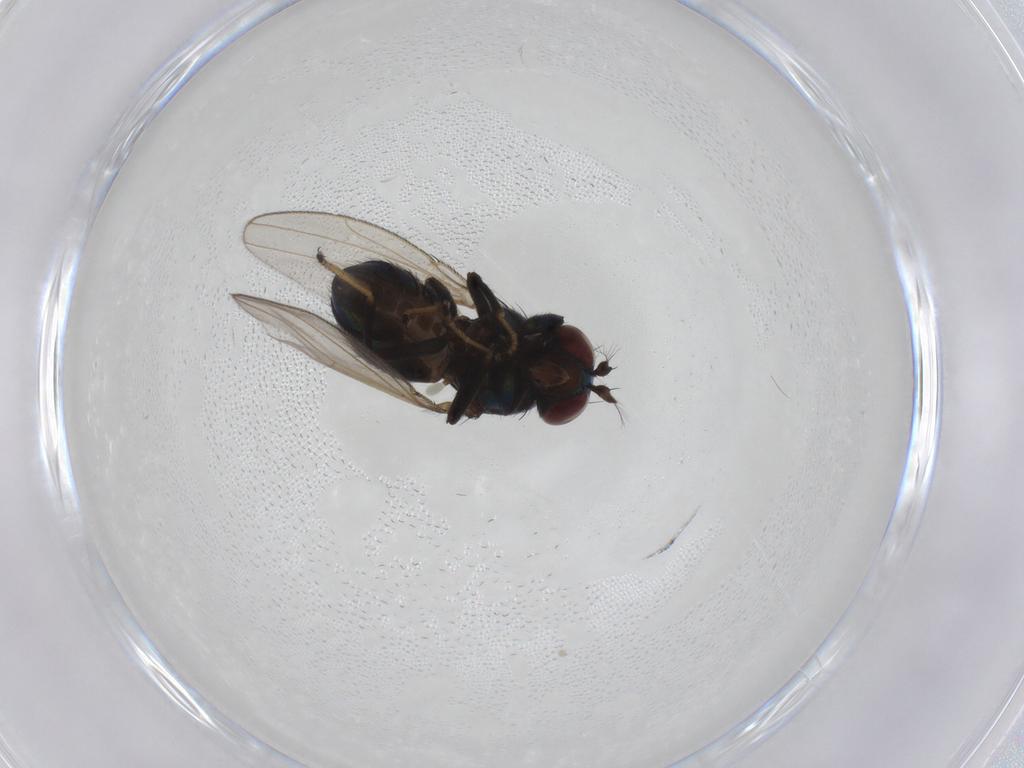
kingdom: Animalia
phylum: Arthropoda
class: Insecta
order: Diptera
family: Ephydridae
